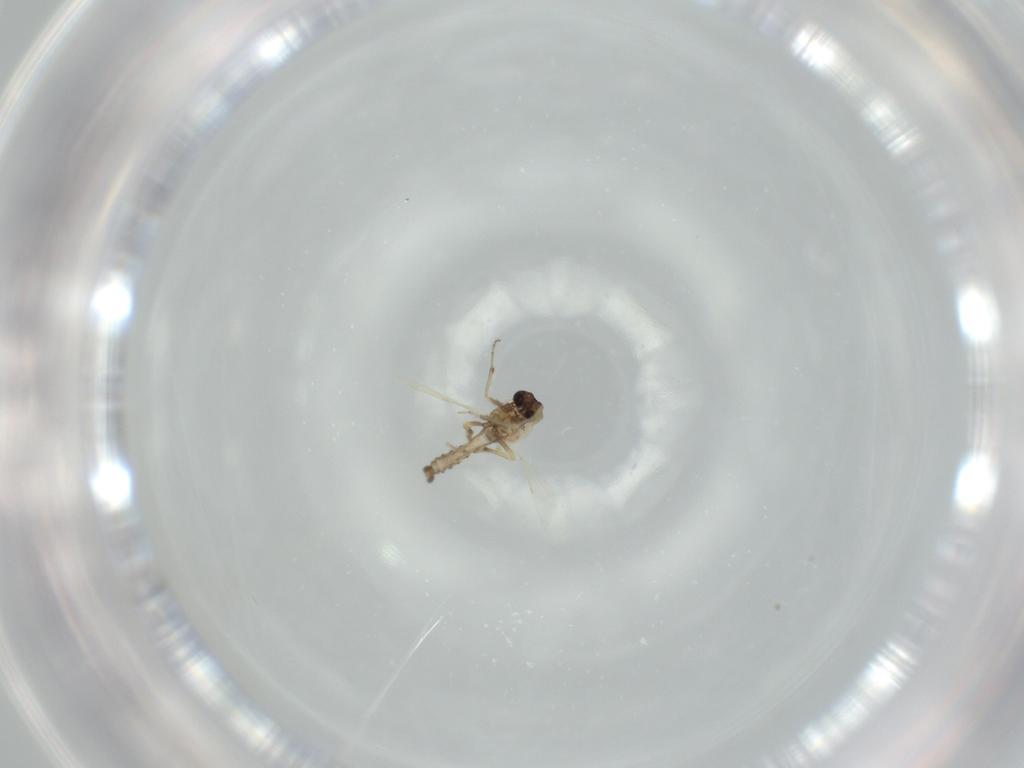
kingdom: Animalia
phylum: Arthropoda
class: Insecta
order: Diptera
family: Ceratopogonidae
